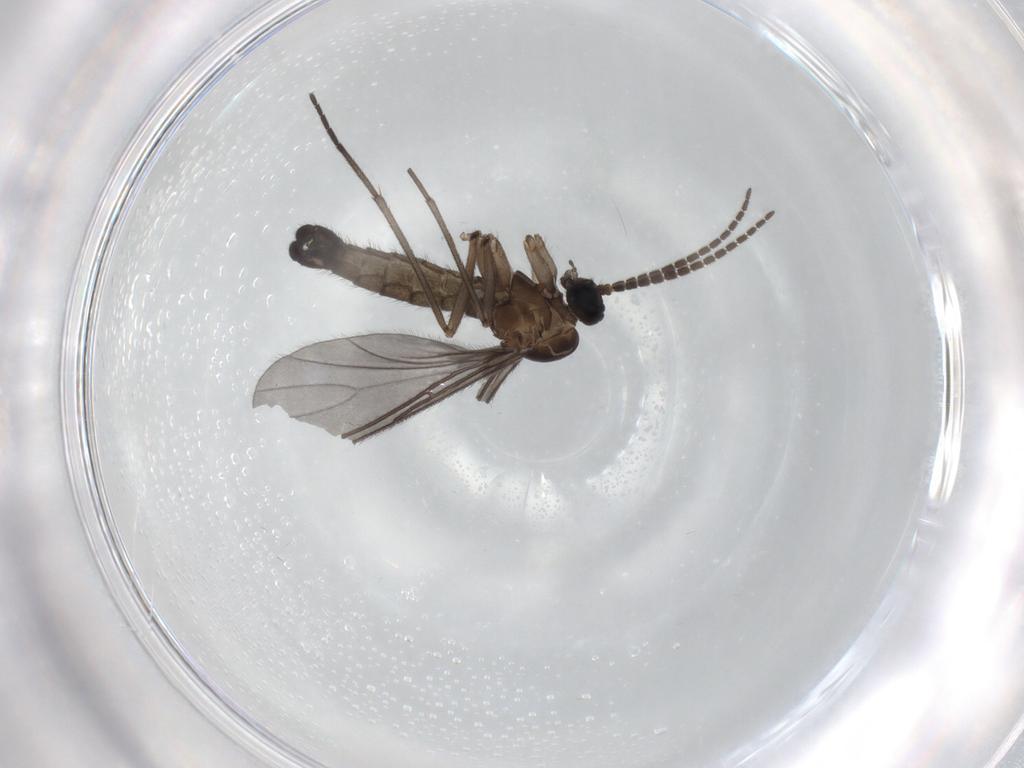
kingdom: Animalia
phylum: Arthropoda
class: Insecta
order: Diptera
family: Sciaridae
